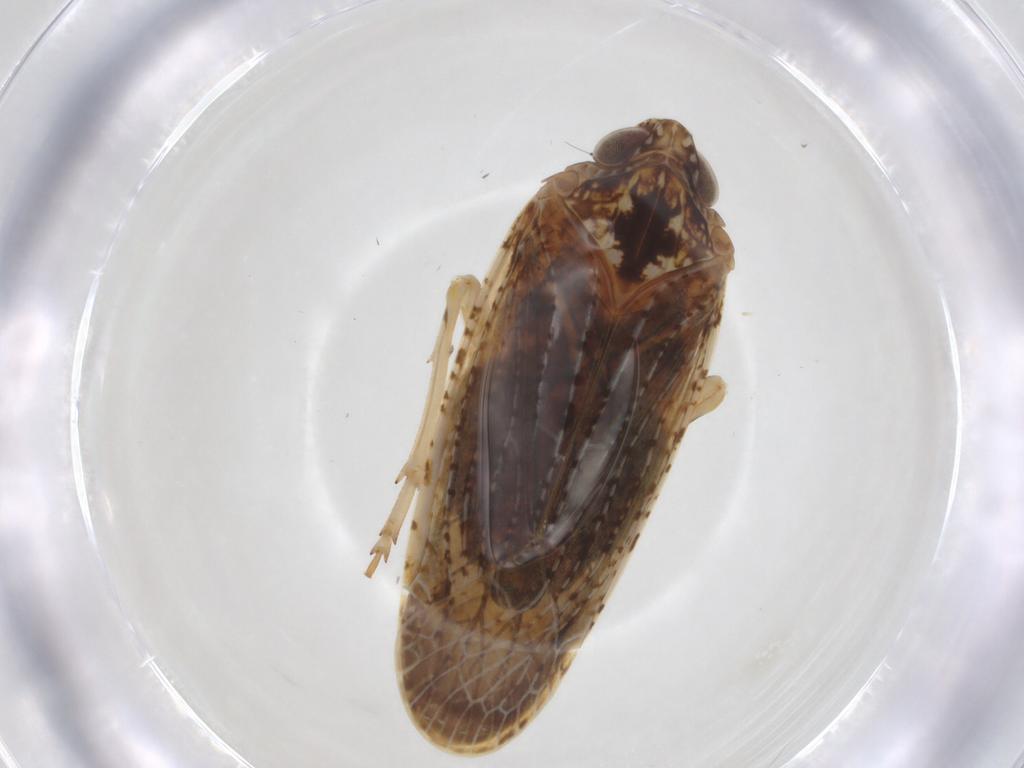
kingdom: Animalia
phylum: Arthropoda
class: Insecta
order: Hemiptera
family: Achilidae
